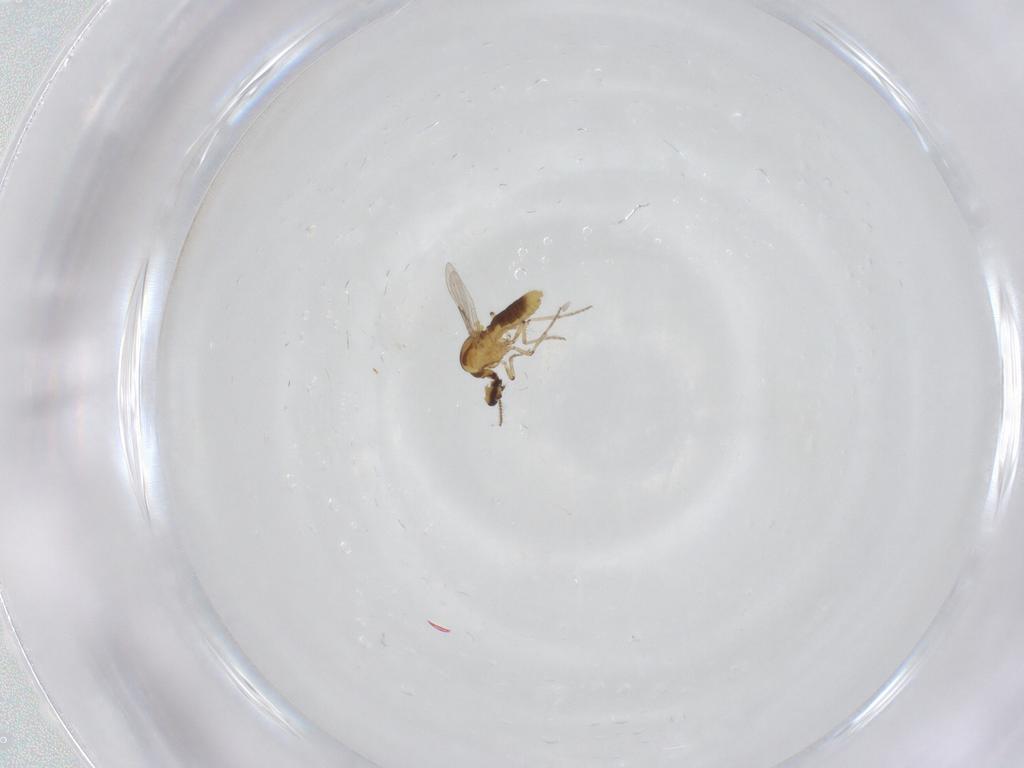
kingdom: Animalia
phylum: Arthropoda
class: Insecta
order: Diptera
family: Ceratopogonidae
